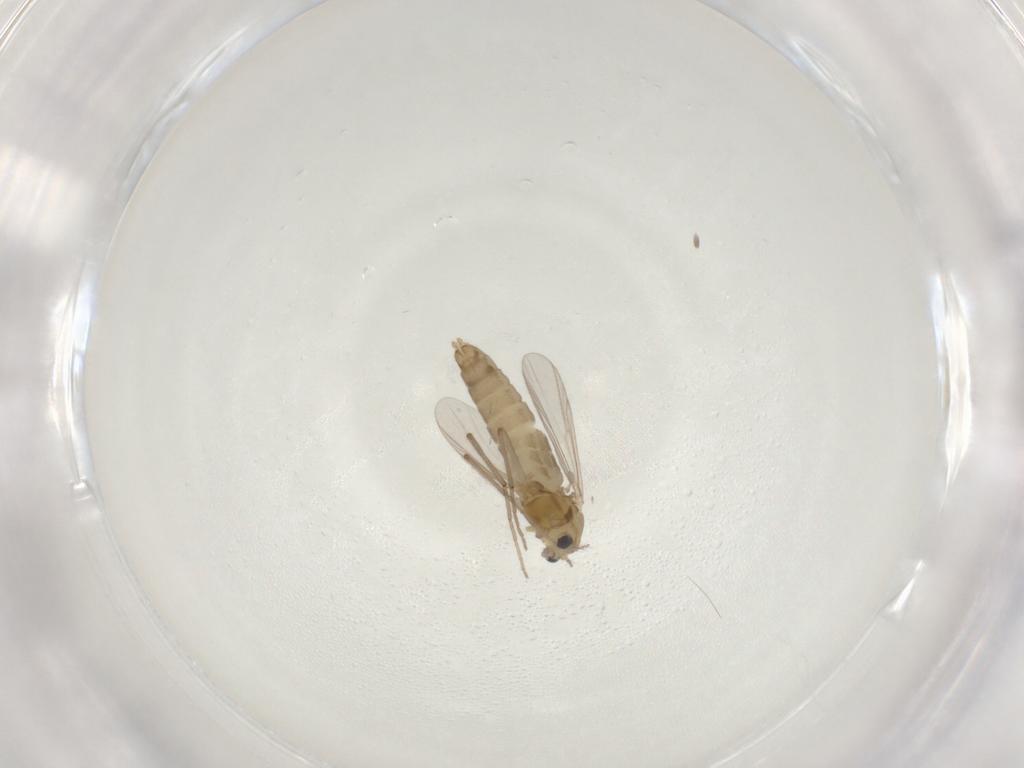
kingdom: Animalia
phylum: Arthropoda
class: Insecta
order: Diptera
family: Chironomidae
